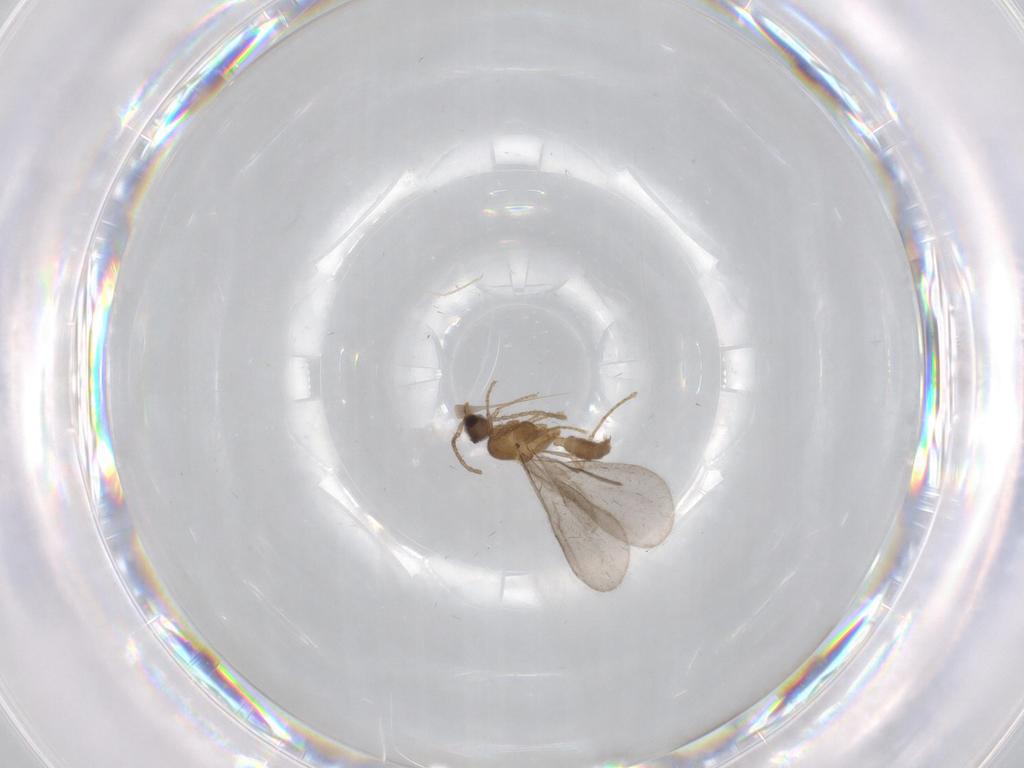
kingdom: Animalia
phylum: Arthropoda
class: Insecta
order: Hymenoptera
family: Formicidae
